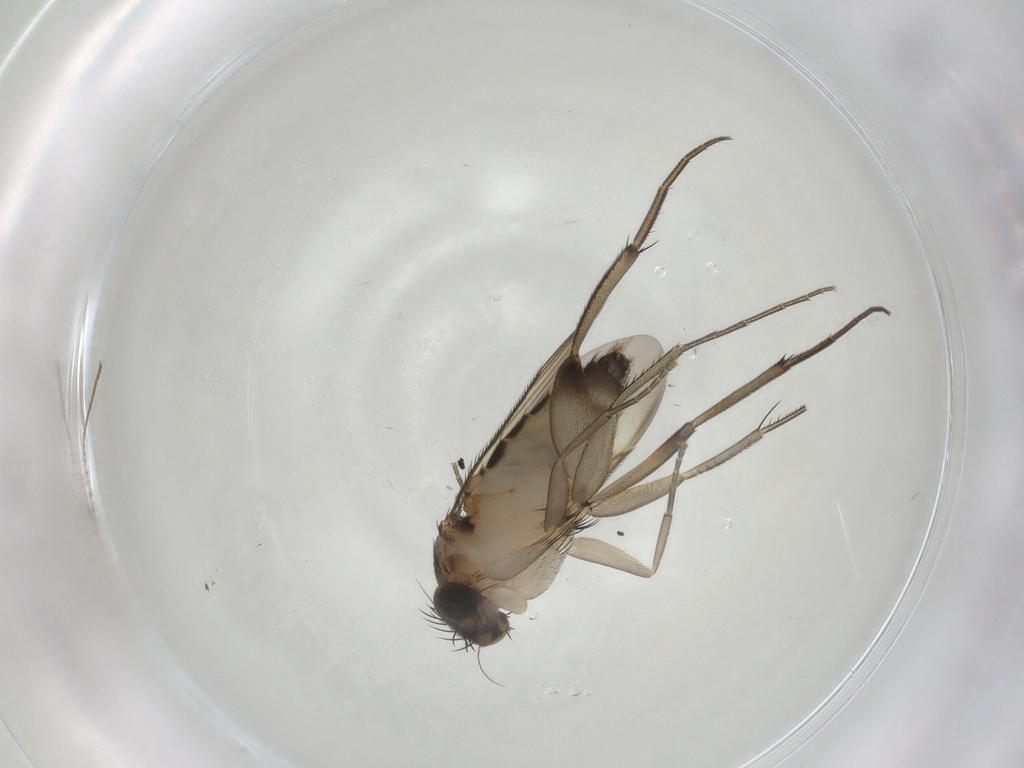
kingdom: Animalia
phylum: Arthropoda
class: Insecta
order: Diptera
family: Phoridae
